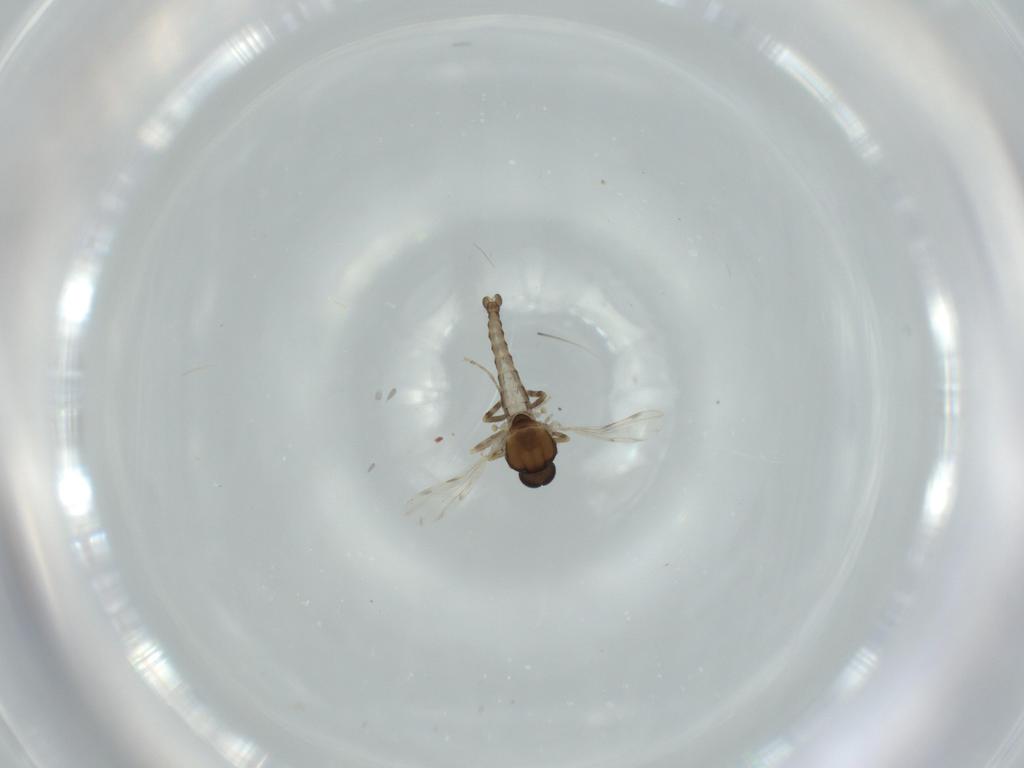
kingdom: Animalia
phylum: Arthropoda
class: Insecta
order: Diptera
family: Ceratopogonidae
